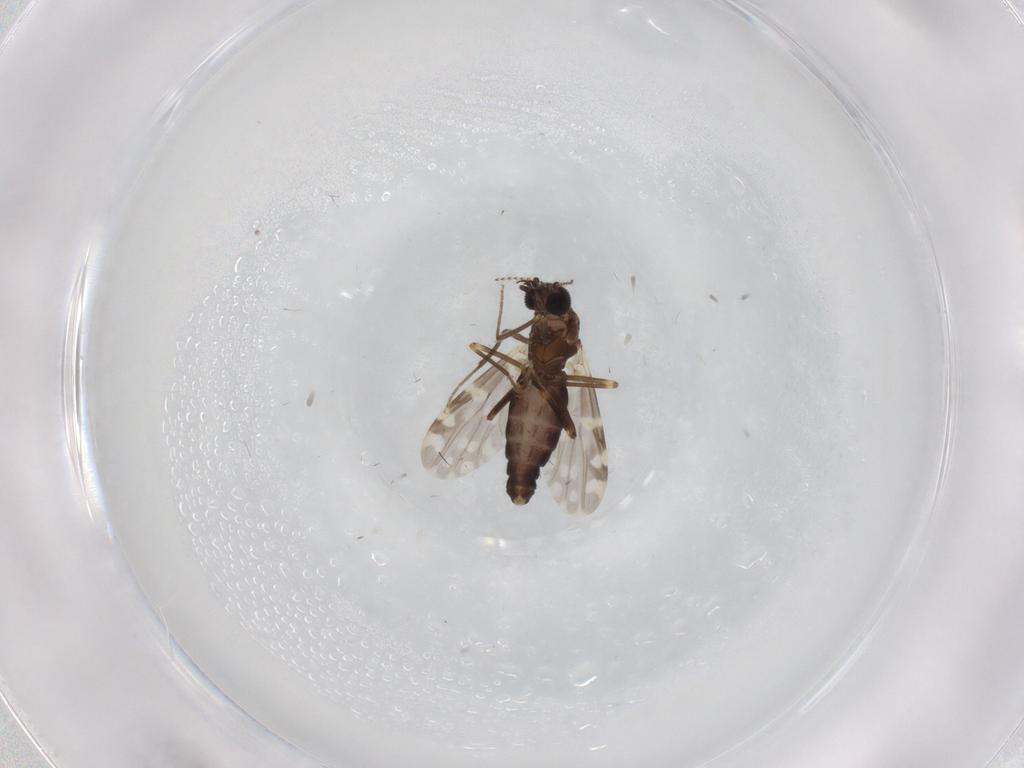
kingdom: Animalia
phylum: Arthropoda
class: Insecta
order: Diptera
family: Ceratopogonidae
